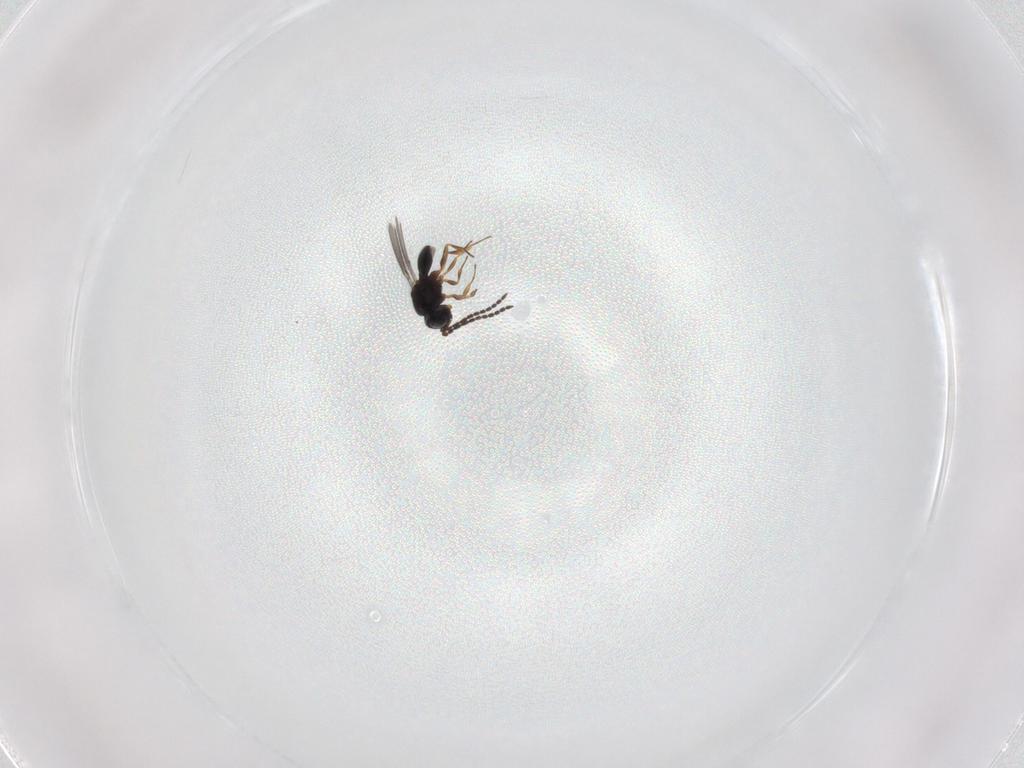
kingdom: Animalia
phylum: Arthropoda
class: Insecta
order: Hymenoptera
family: Scelionidae
